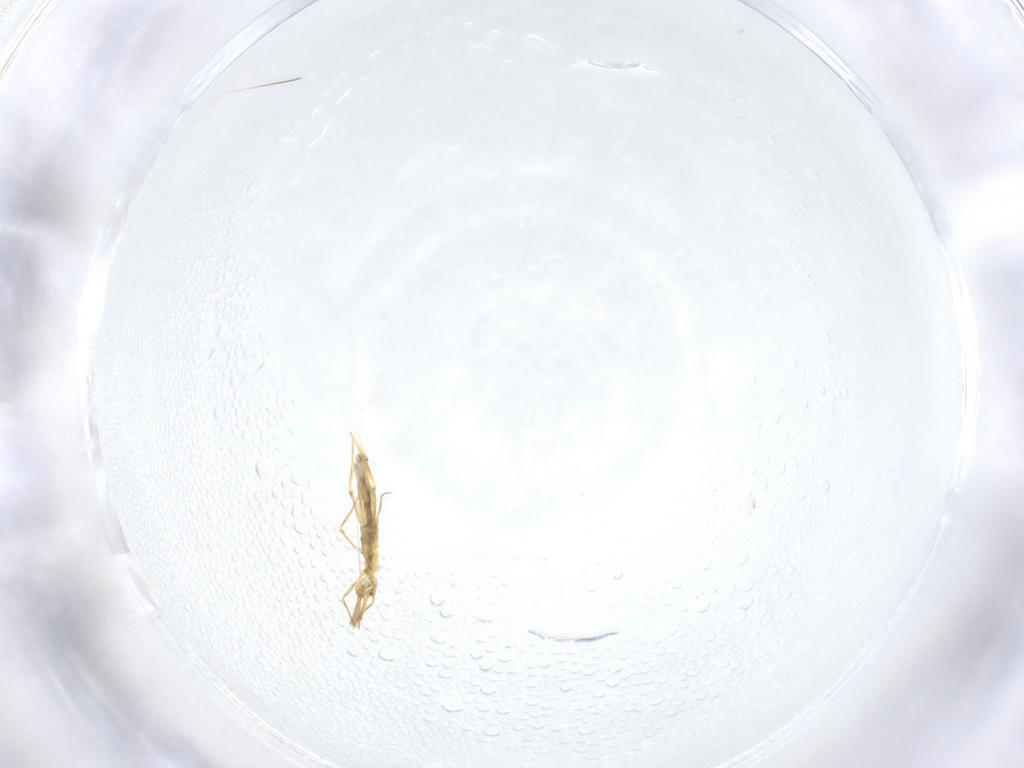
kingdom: Animalia
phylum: Arthropoda
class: Collembola
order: Entomobryomorpha
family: Entomobryidae
